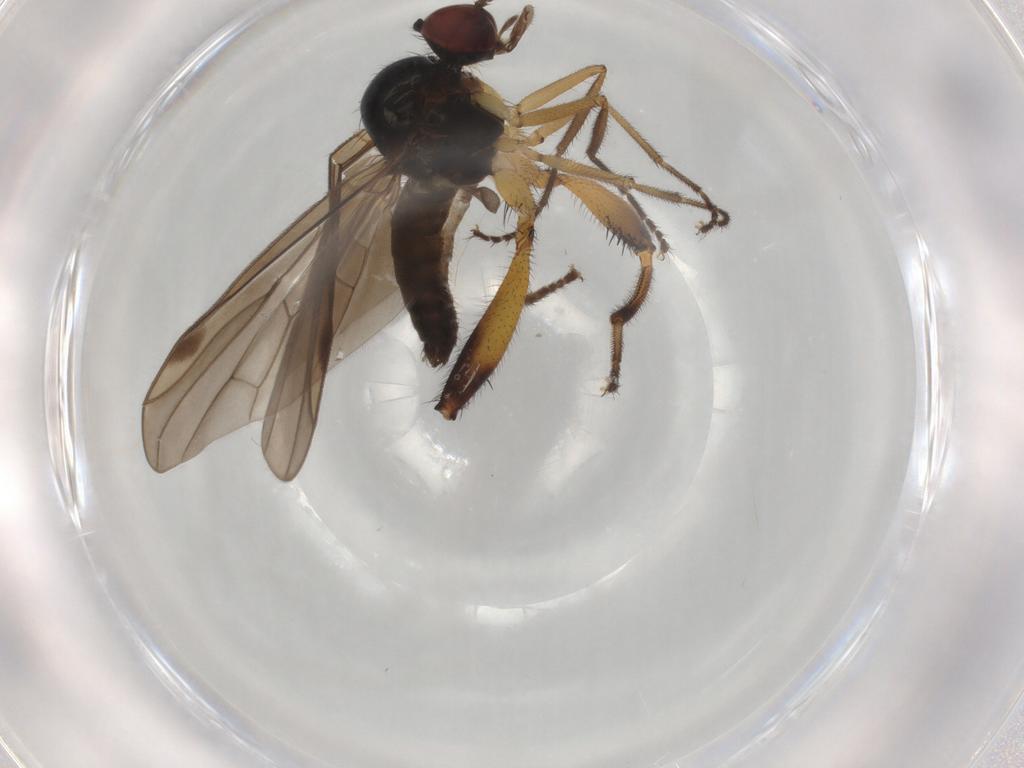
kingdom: Animalia
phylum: Arthropoda
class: Insecta
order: Diptera
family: Hybotidae
